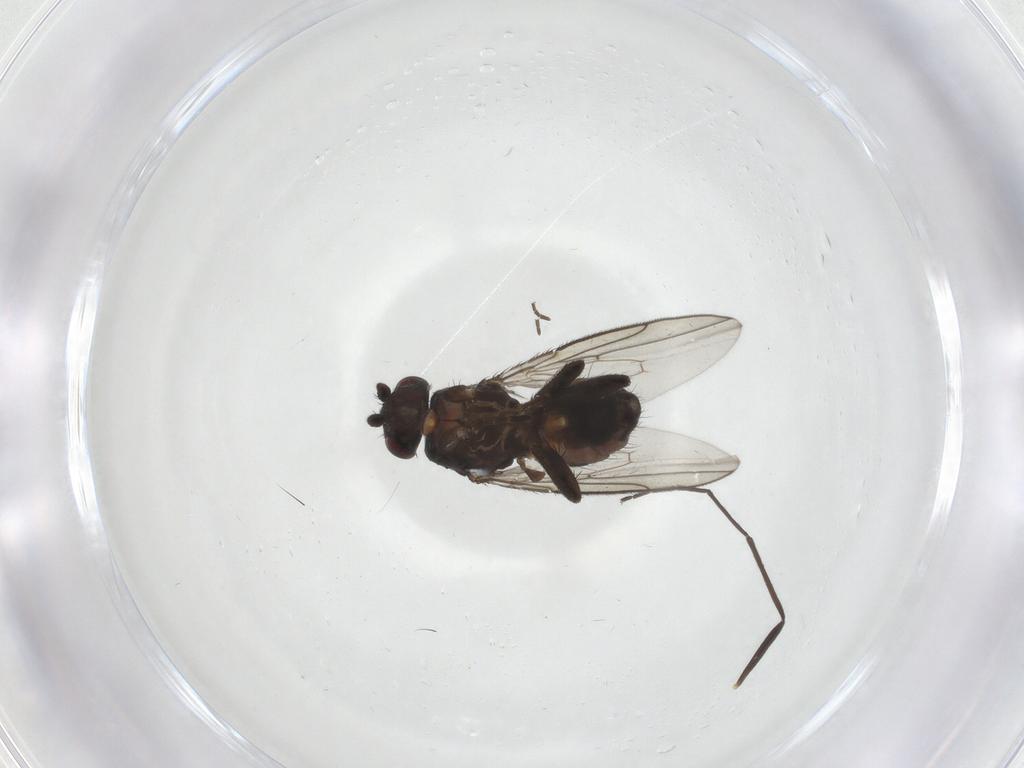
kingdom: Animalia
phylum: Arthropoda
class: Insecta
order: Diptera
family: Sphaeroceridae
